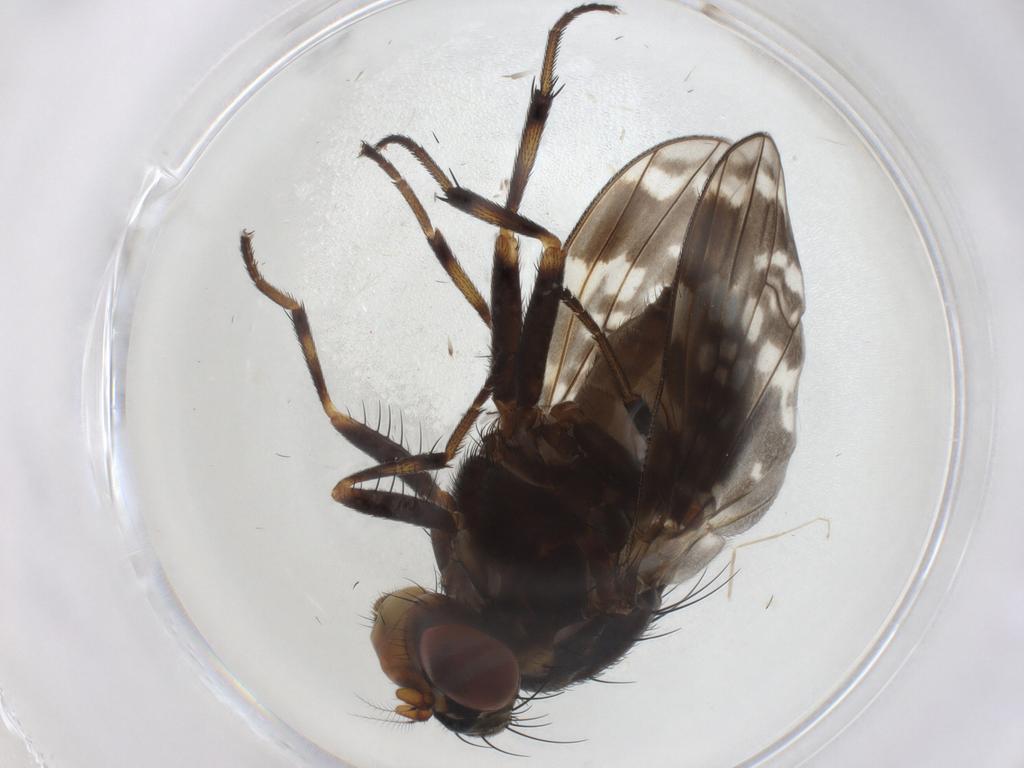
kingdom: Animalia
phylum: Arthropoda
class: Insecta
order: Diptera
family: Lauxaniidae
